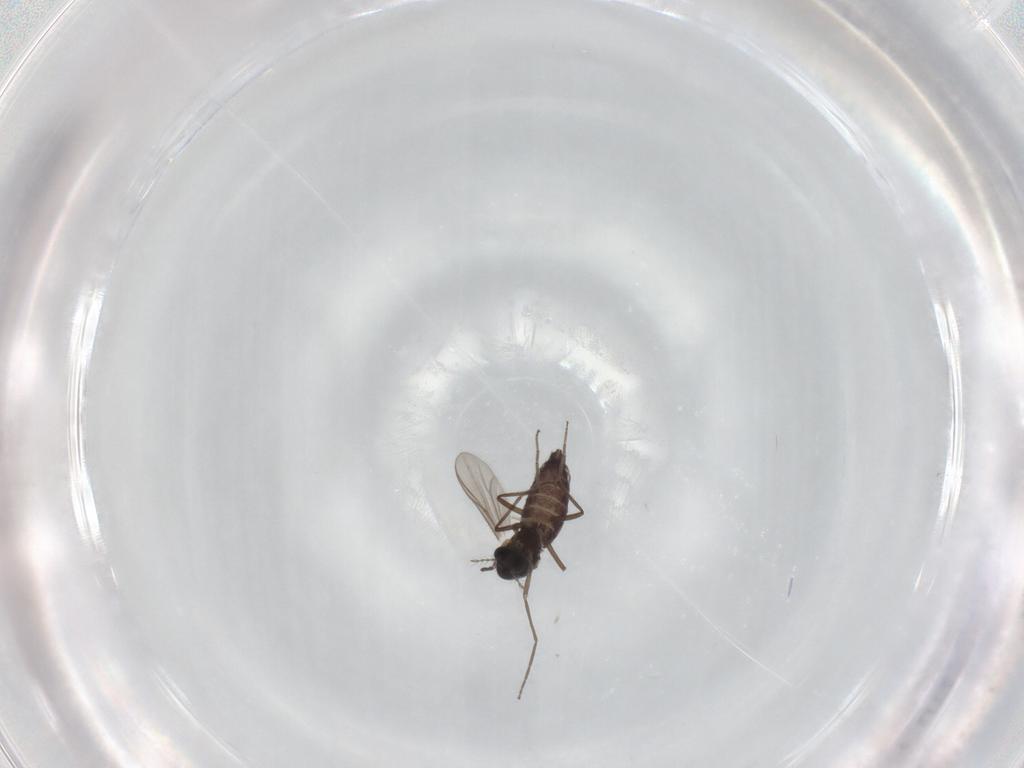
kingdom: Animalia
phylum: Arthropoda
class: Insecta
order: Diptera
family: Chironomidae
